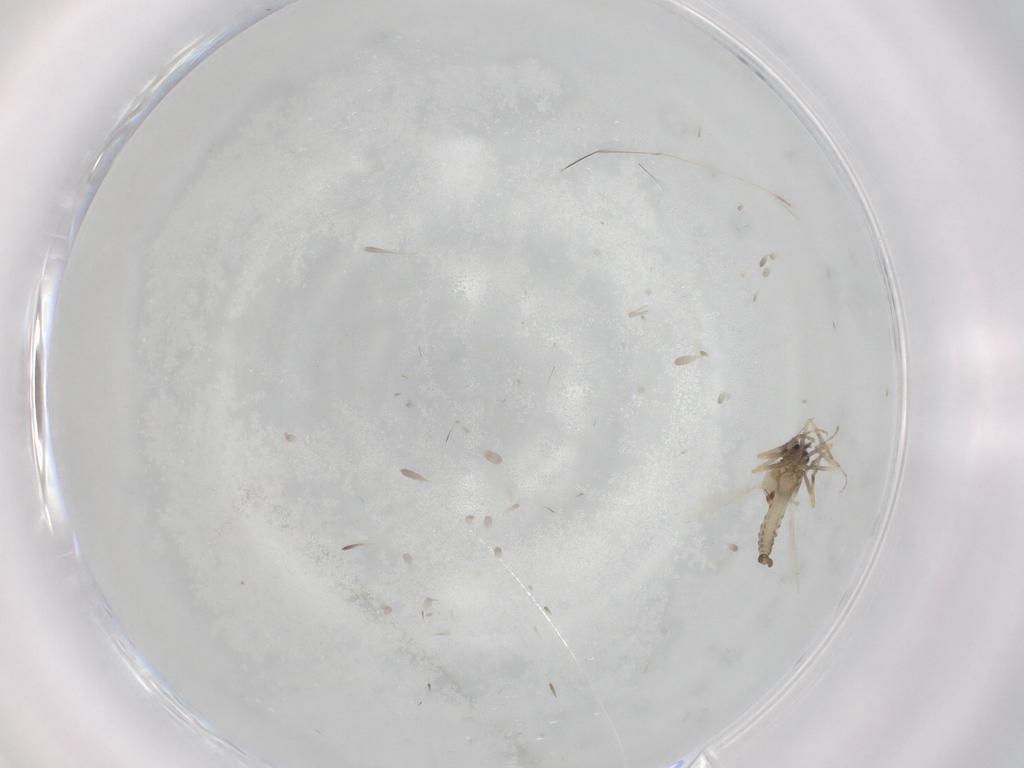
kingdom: Animalia
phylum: Arthropoda
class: Insecta
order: Diptera
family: Ceratopogonidae
